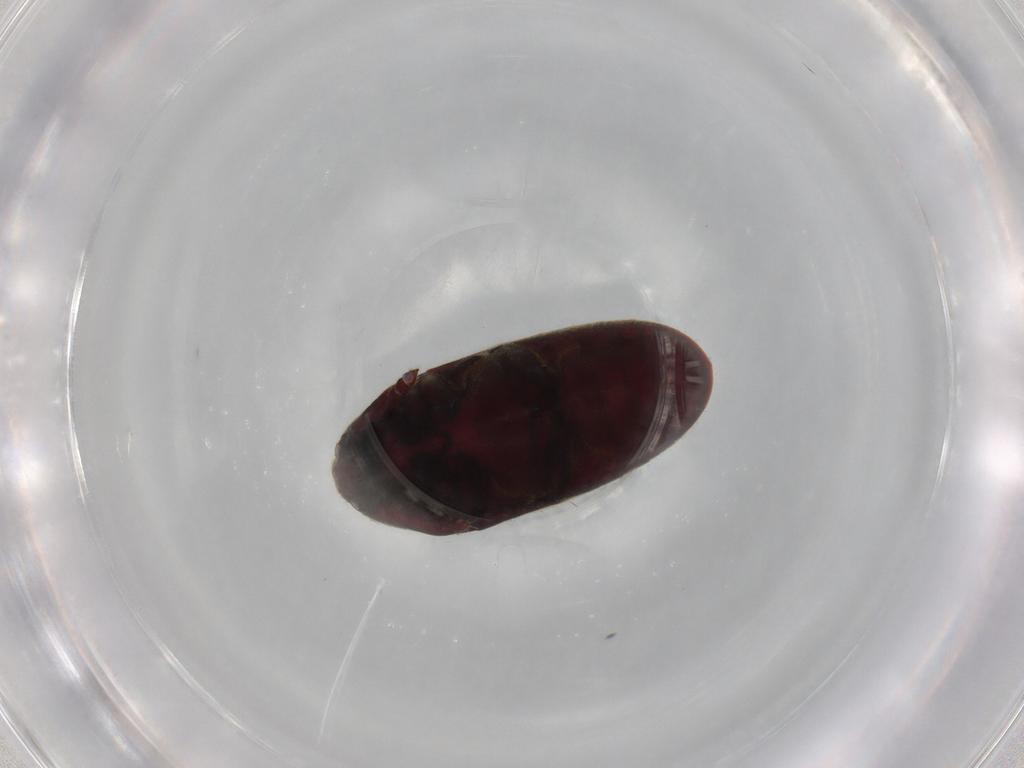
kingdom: Animalia
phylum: Arthropoda
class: Insecta
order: Coleoptera
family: Throscidae
